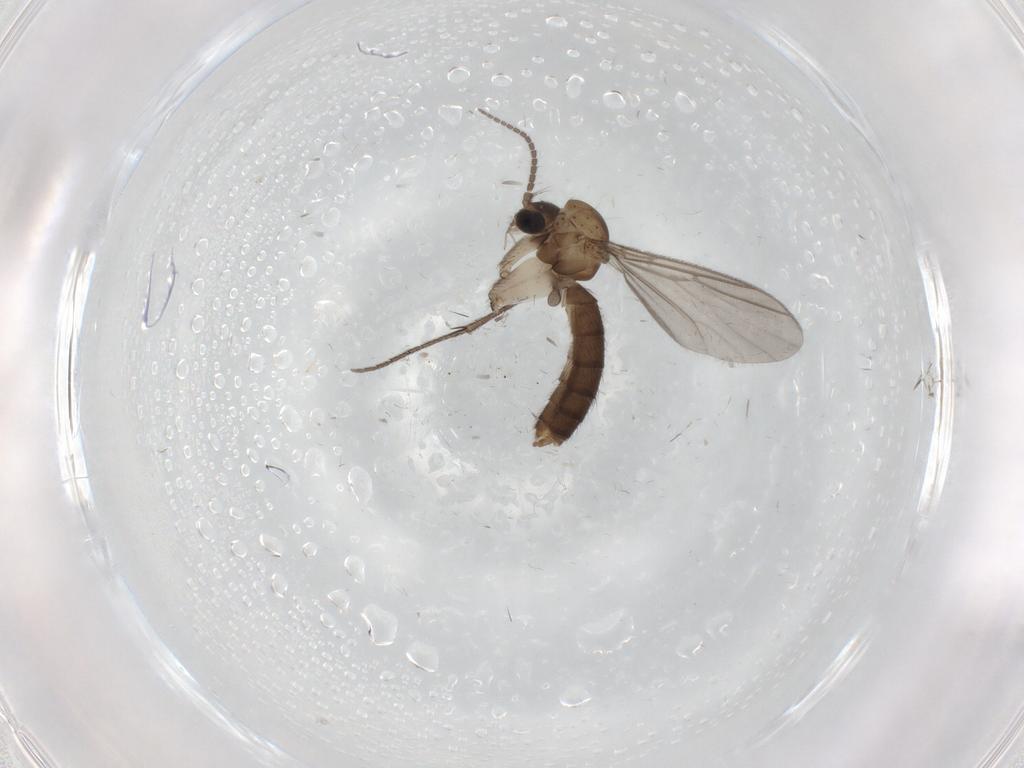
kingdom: Animalia
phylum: Arthropoda
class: Insecta
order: Diptera
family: Mycetophilidae
